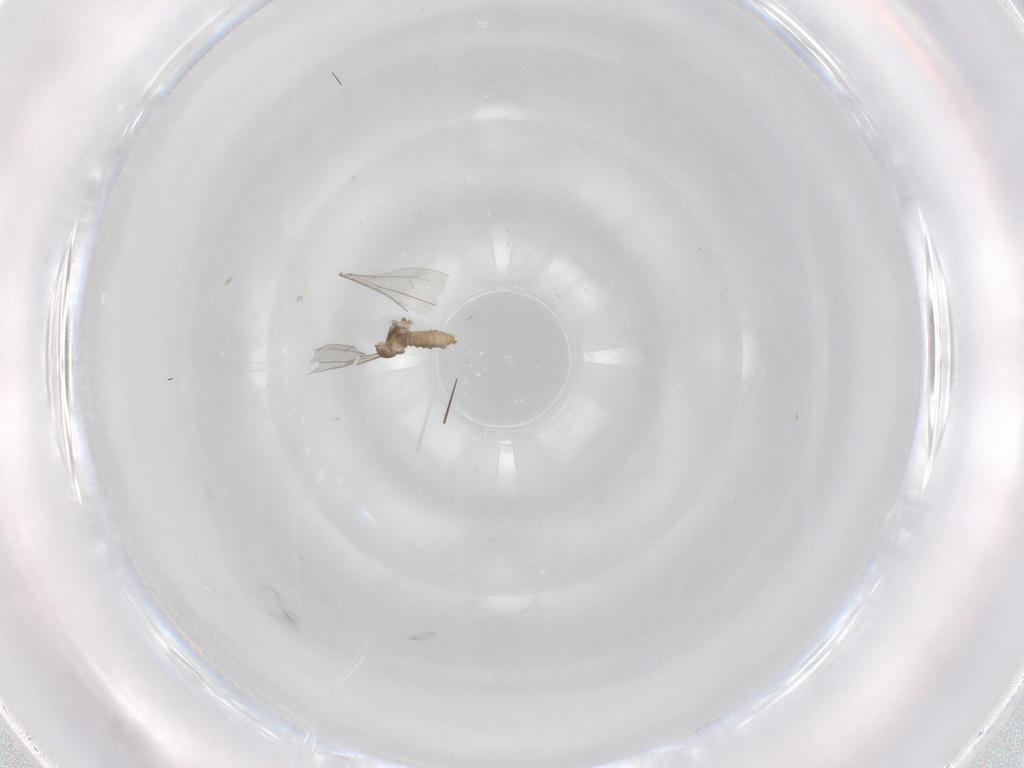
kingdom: Animalia
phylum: Arthropoda
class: Insecta
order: Diptera
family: Cecidomyiidae
